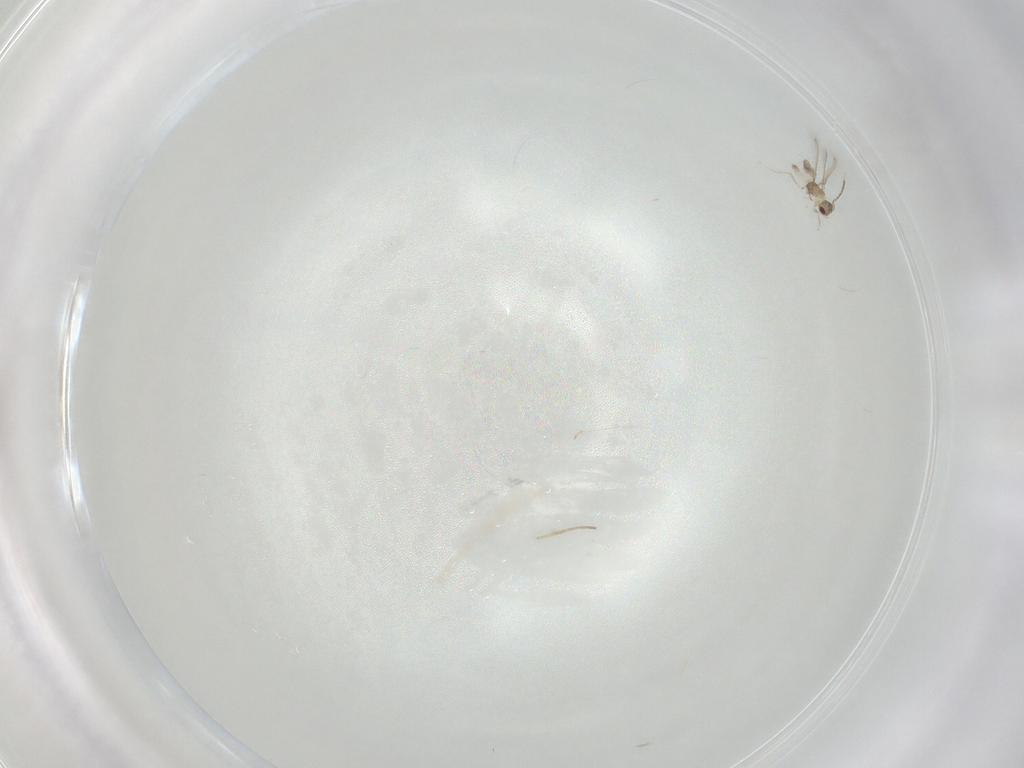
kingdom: Animalia
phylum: Arthropoda
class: Insecta
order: Hymenoptera
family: Mymaridae
